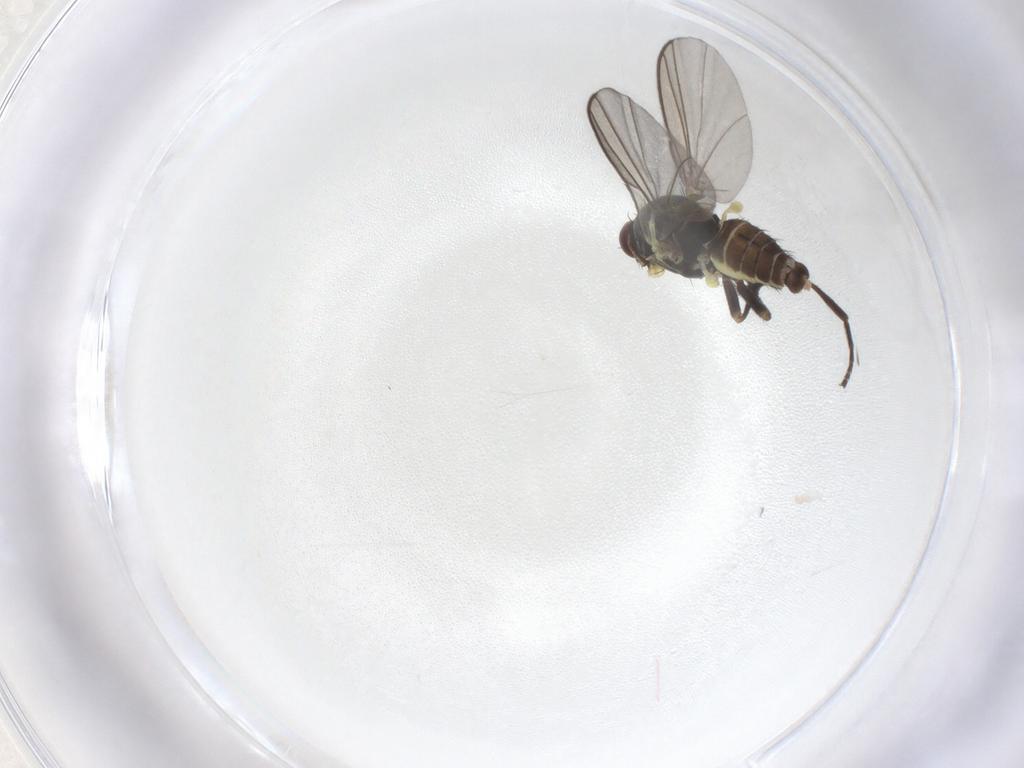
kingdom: Animalia
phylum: Arthropoda
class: Insecta
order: Diptera
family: Agromyzidae
